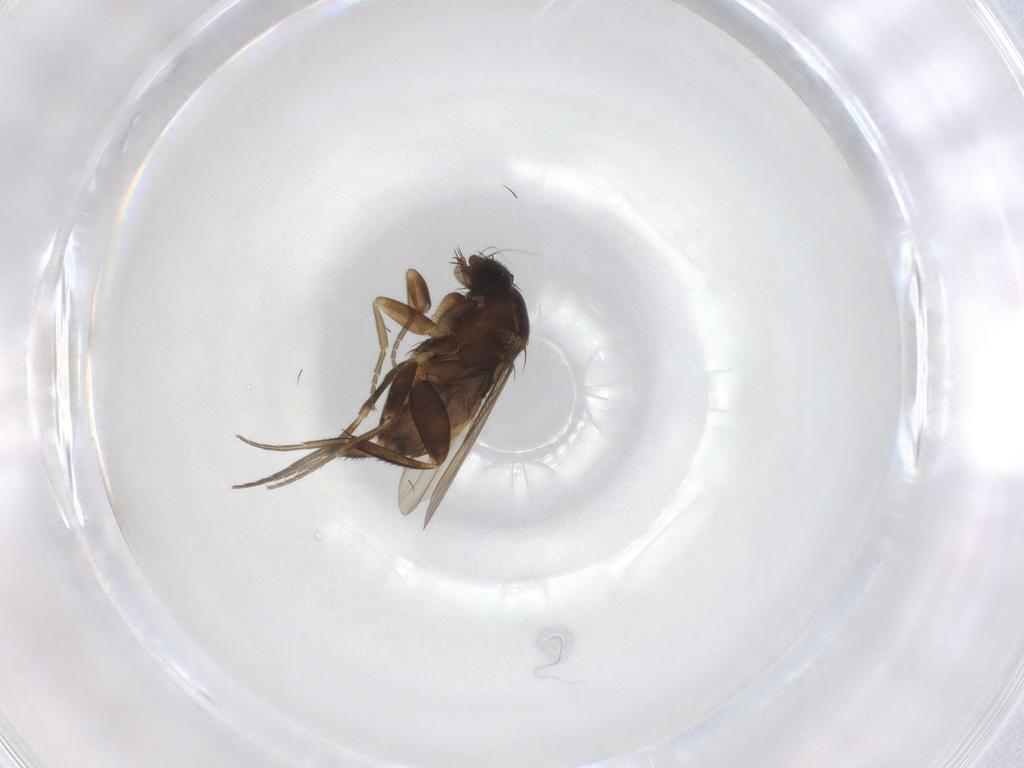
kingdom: Animalia
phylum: Arthropoda
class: Insecta
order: Diptera
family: Phoridae
